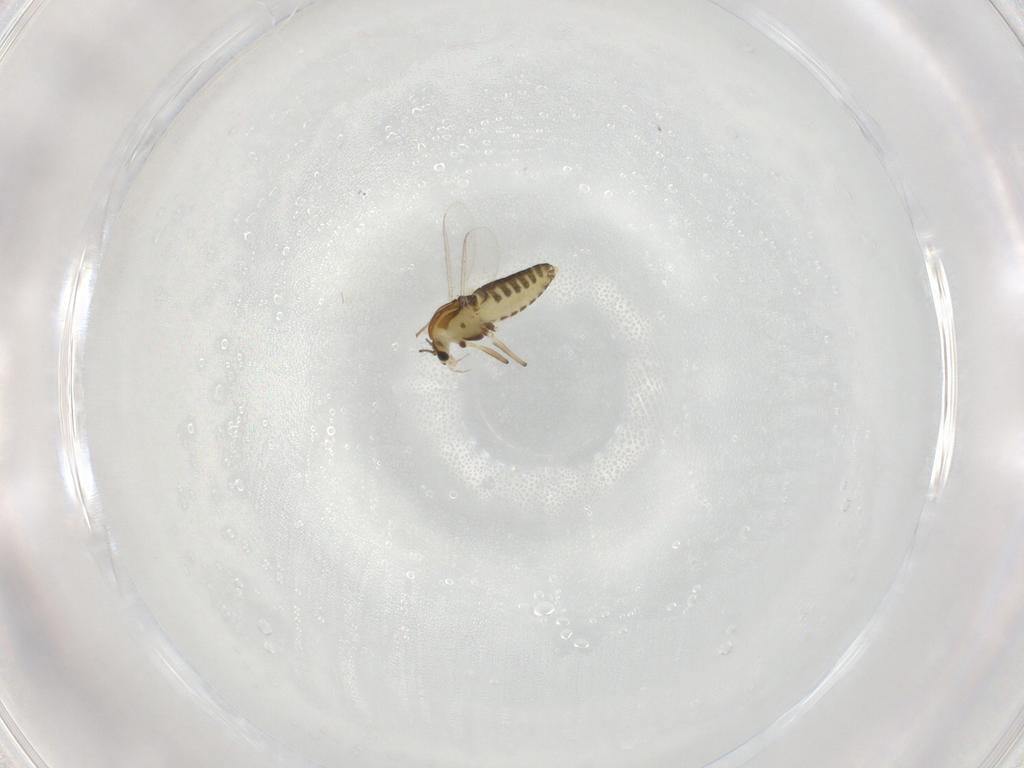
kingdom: Animalia
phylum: Arthropoda
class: Insecta
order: Diptera
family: Chironomidae
